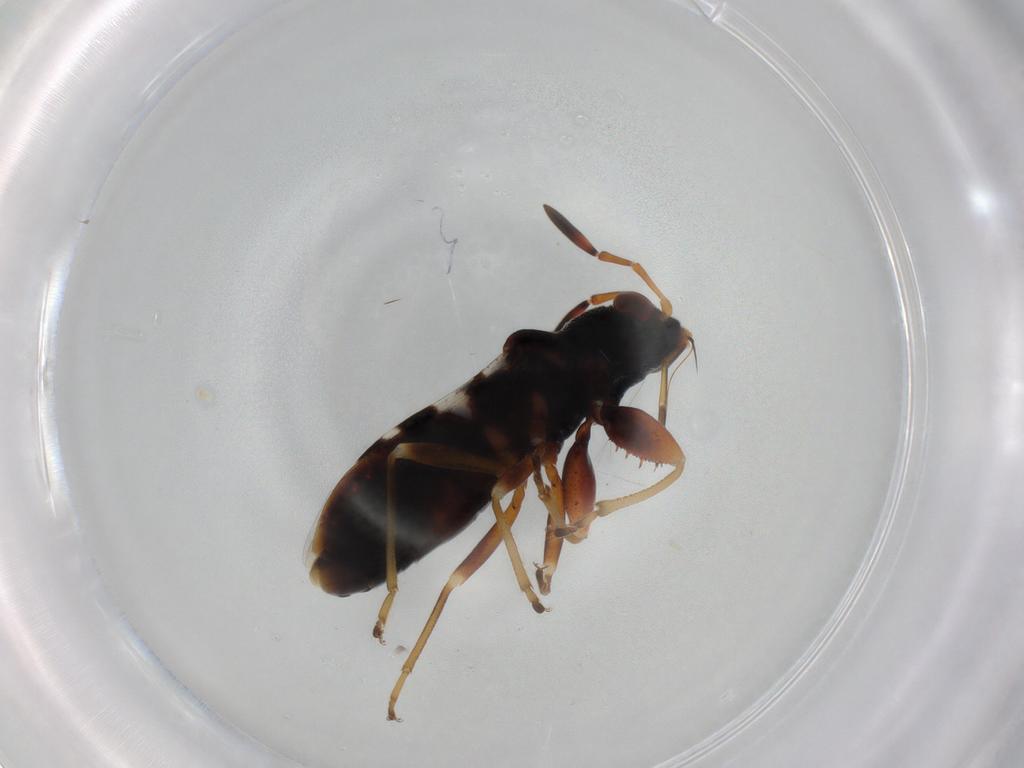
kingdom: Animalia
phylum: Arthropoda
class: Insecta
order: Hemiptera
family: Rhyparochromidae
